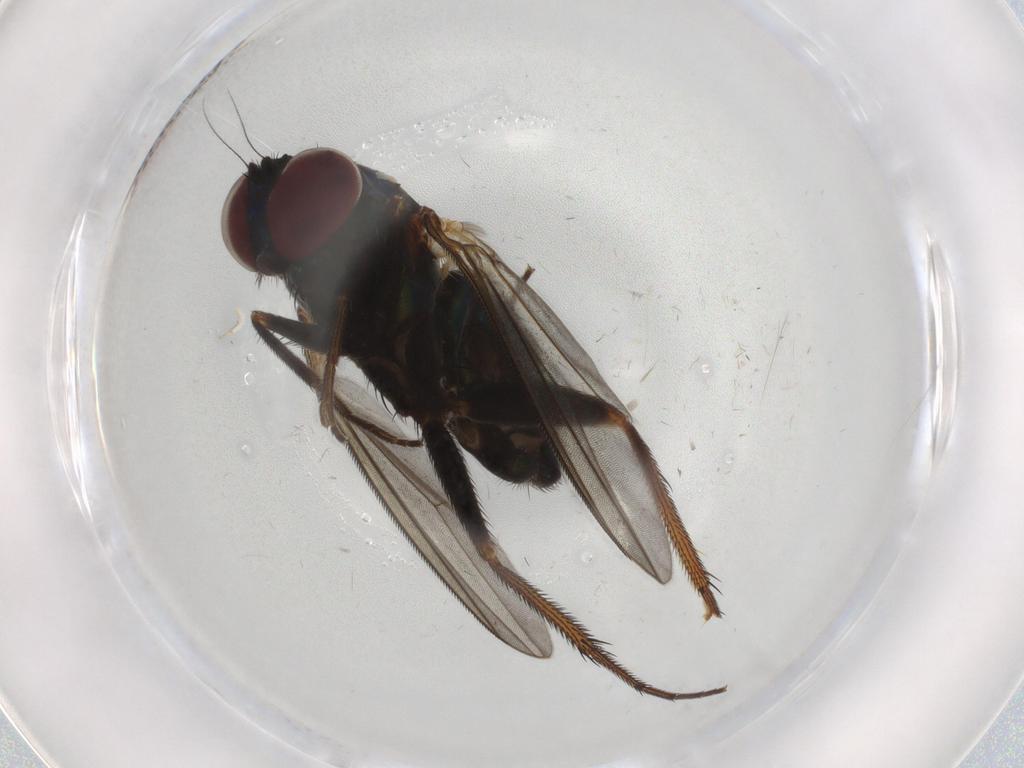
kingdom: Animalia
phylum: Arthropoda
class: Insecta
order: Diptera
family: Dolichopodidae
